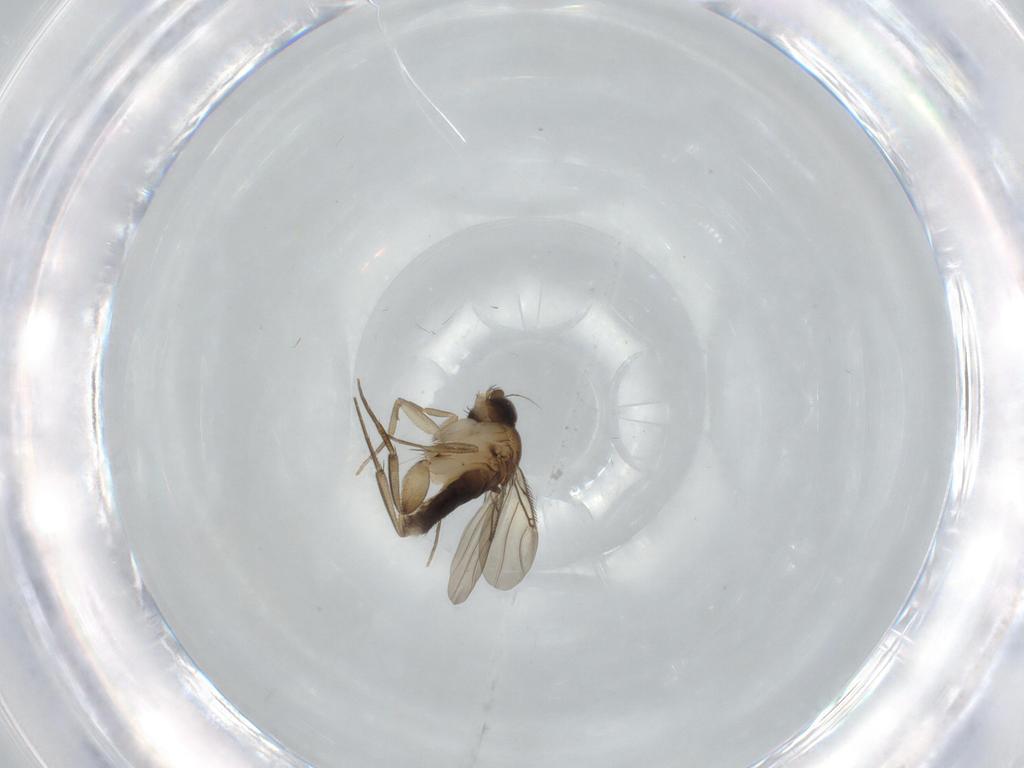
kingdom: Animalia
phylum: Arthropoda
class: Insecta
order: Diptera
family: Phoridae
